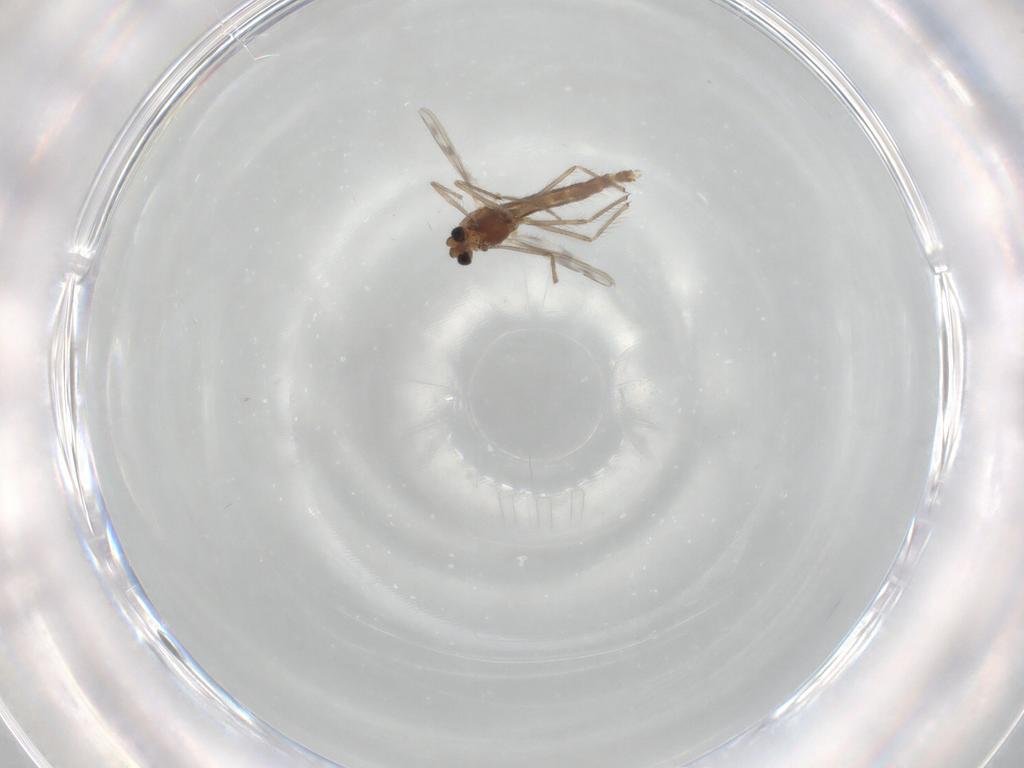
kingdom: Animalia
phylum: Arthropoda
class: Insecta
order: Diptera
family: Chironomidae
